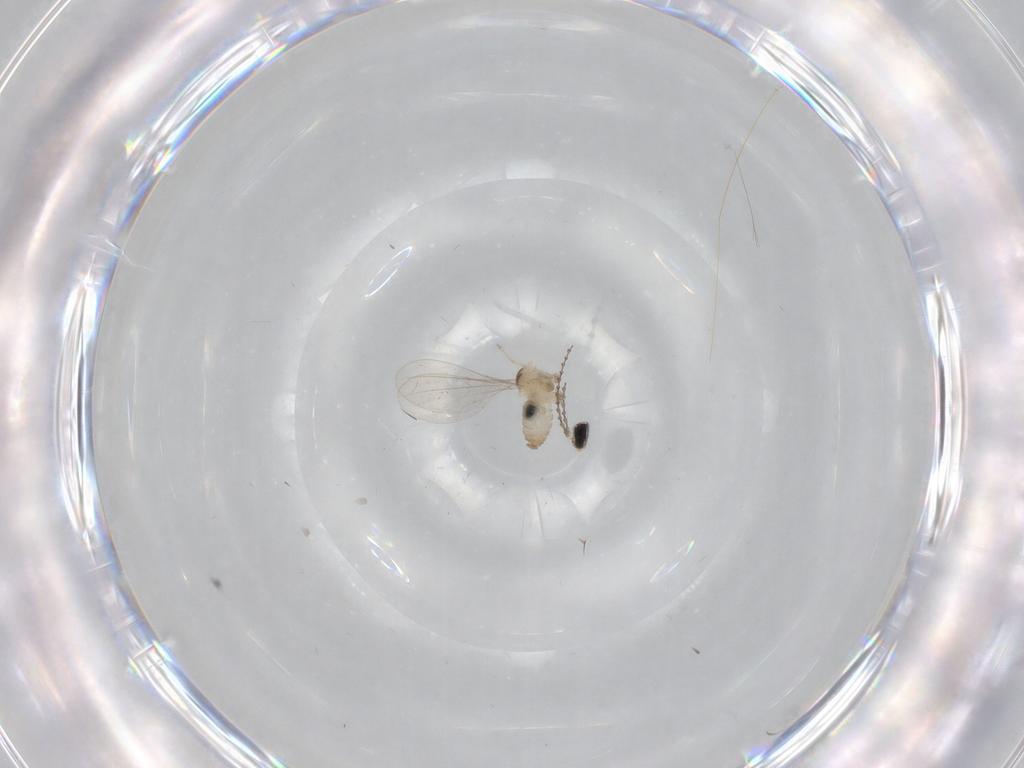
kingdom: Animalia
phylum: Arthropoda
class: Insecta
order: Diptera
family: Cecidomyiidae
